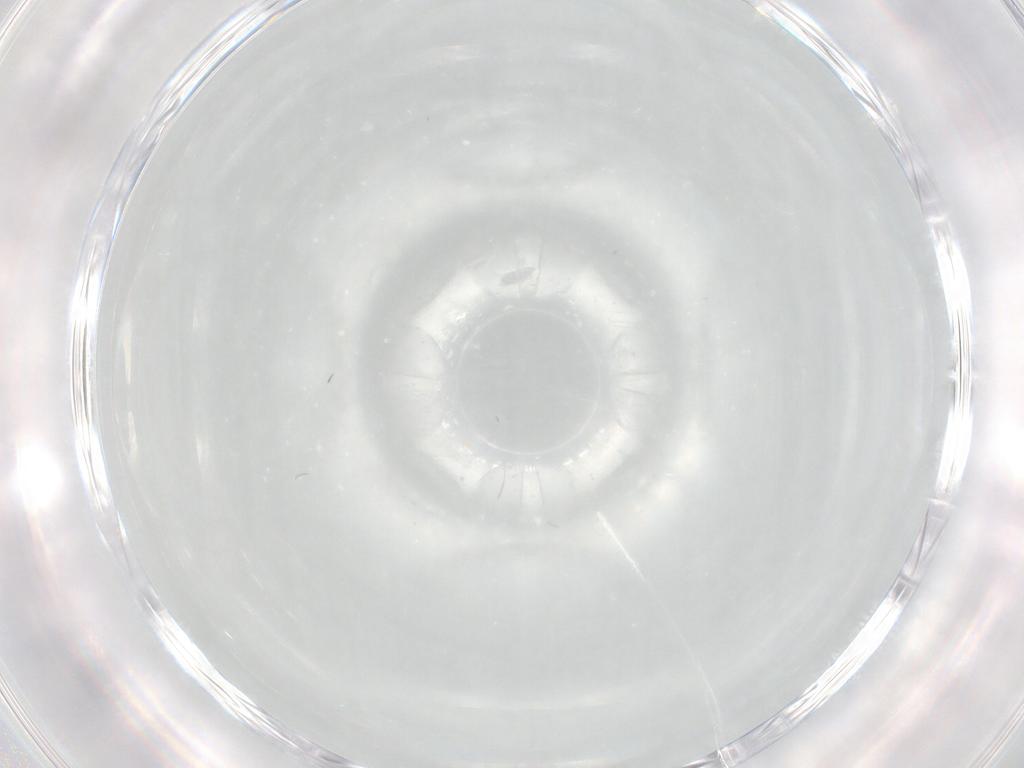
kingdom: Animalia
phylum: Arthropoda
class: Insecta
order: Diptera
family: Cecidomyiidae
